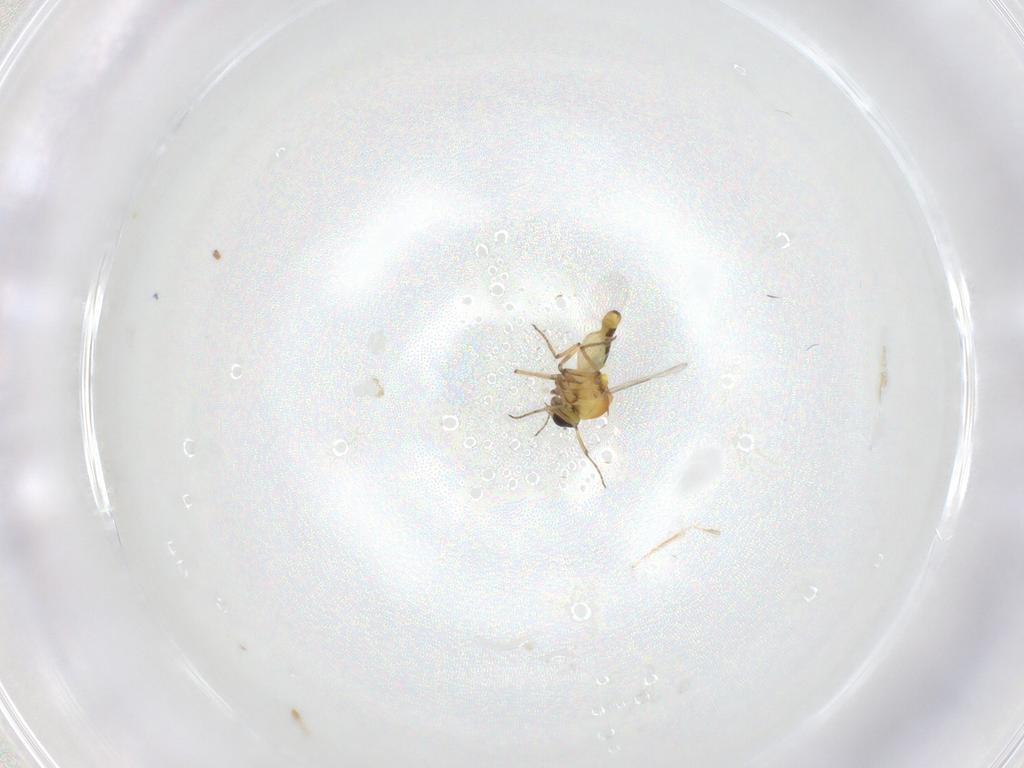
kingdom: Animalia
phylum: Arthropoda
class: Insecta
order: Diptera
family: Ceratopogonidae
